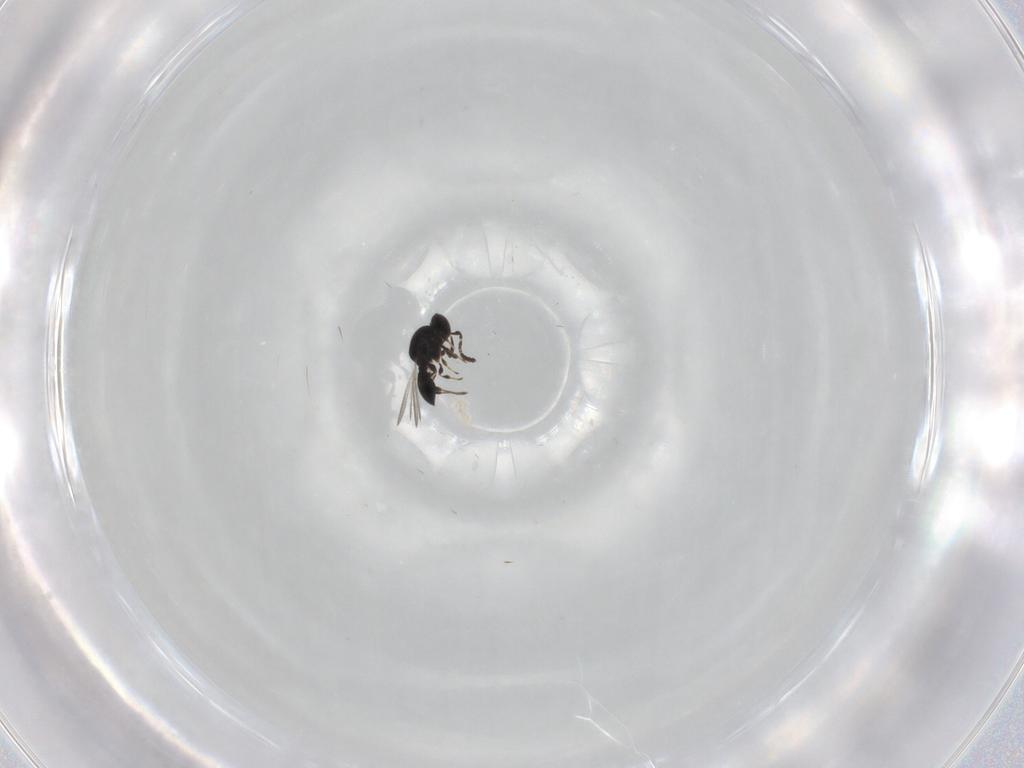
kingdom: Animalia
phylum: Arthropoda
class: Insecta
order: Hymenoptera
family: Platygastridae
